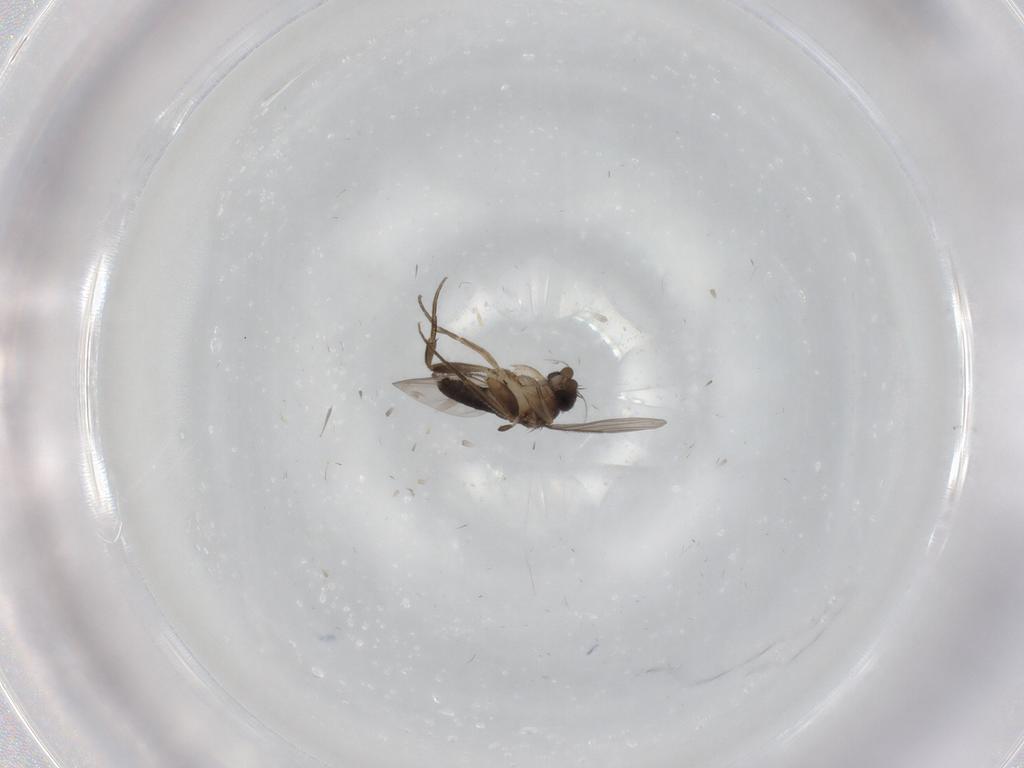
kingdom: Animalia
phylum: Arthropoda
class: Insecta
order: Diptera
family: Phoridae
